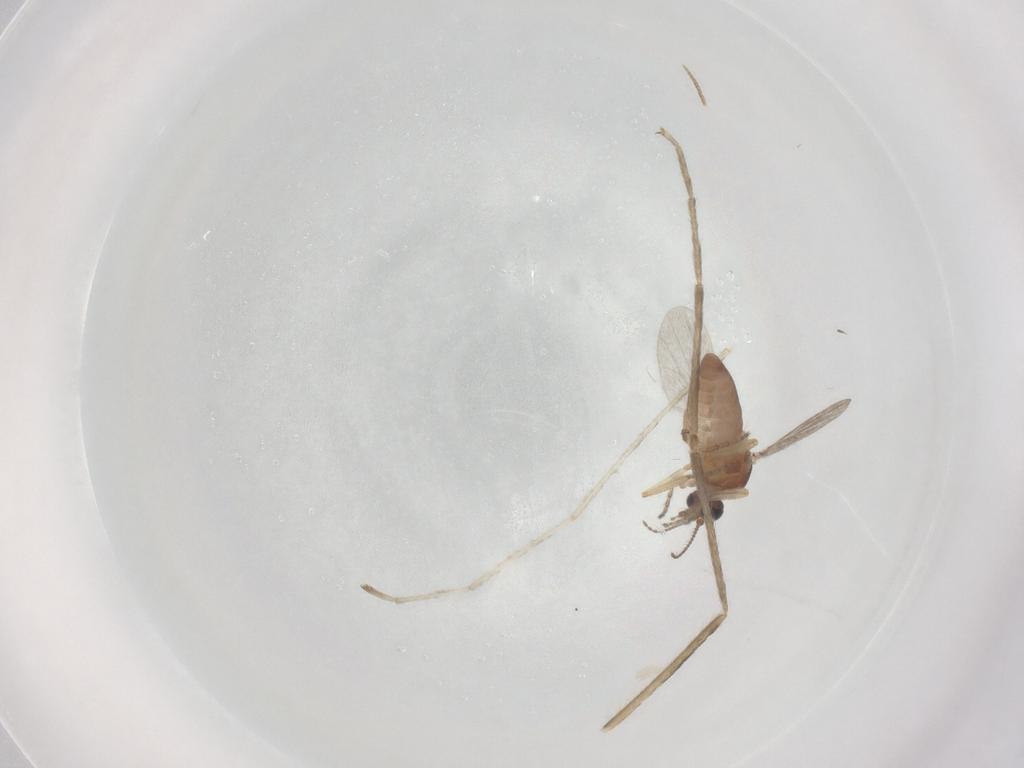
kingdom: Animalia
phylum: Arthropoda
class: Insecta
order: Diptera
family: Ceratopogonidae
